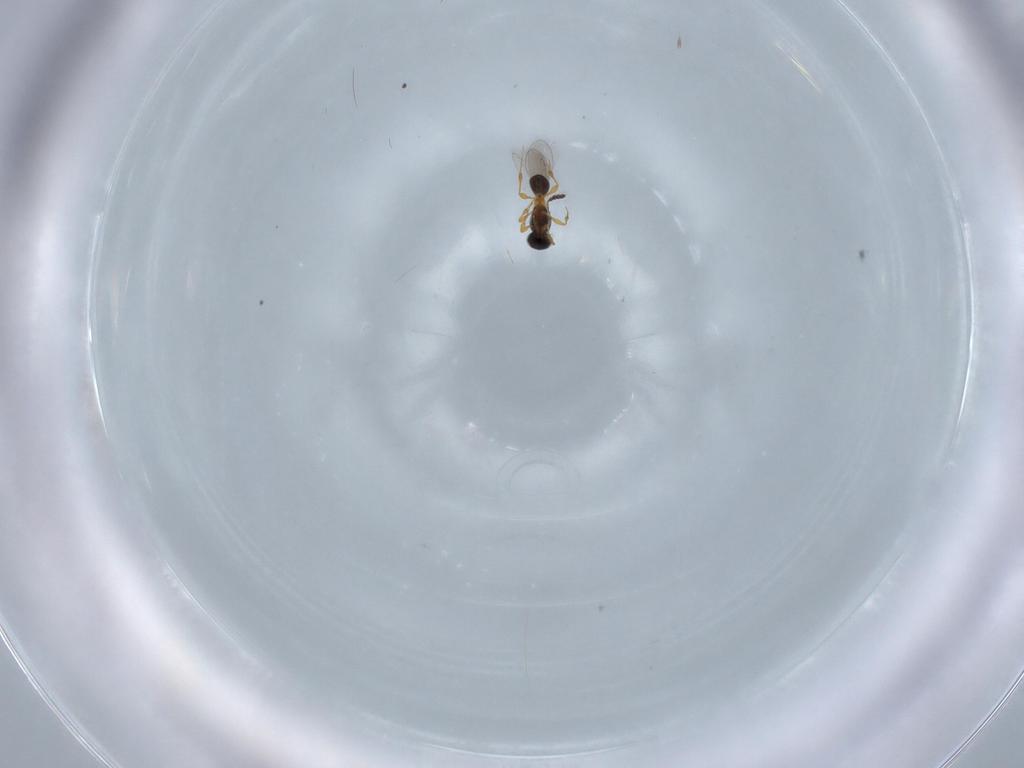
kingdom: Animalia
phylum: Arthropoda
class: Insecta
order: Hymenoptera
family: Platygastridae
